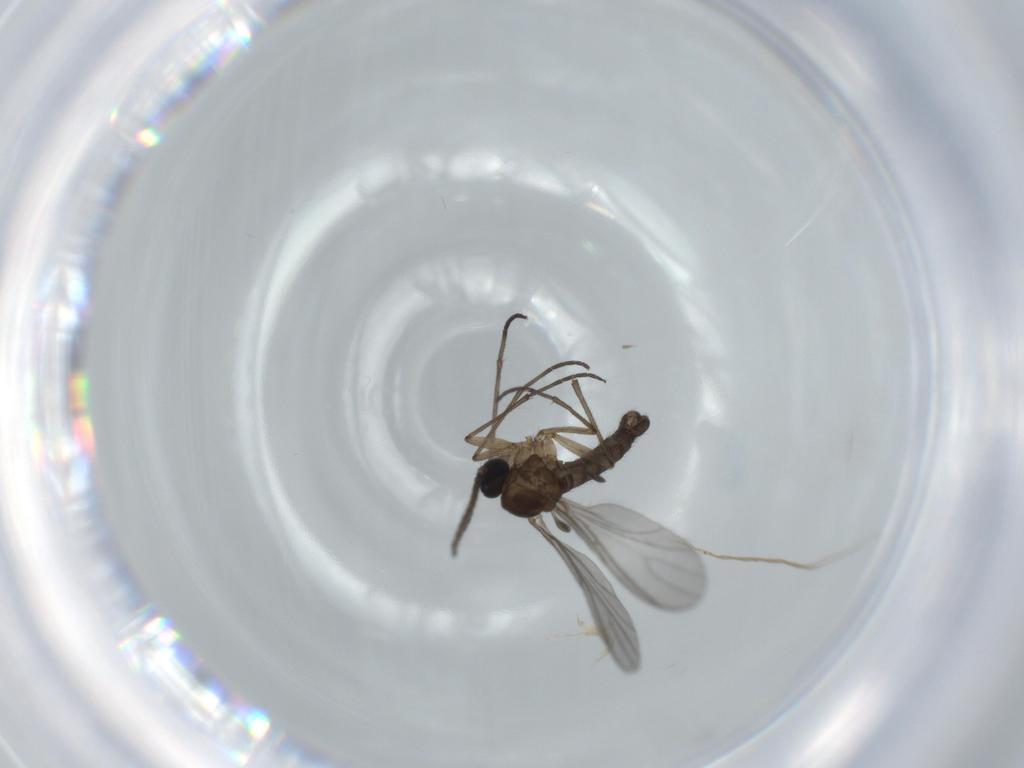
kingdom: Animalia
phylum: Arthropoda
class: Insecta
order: Diptera
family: Sciaridae
